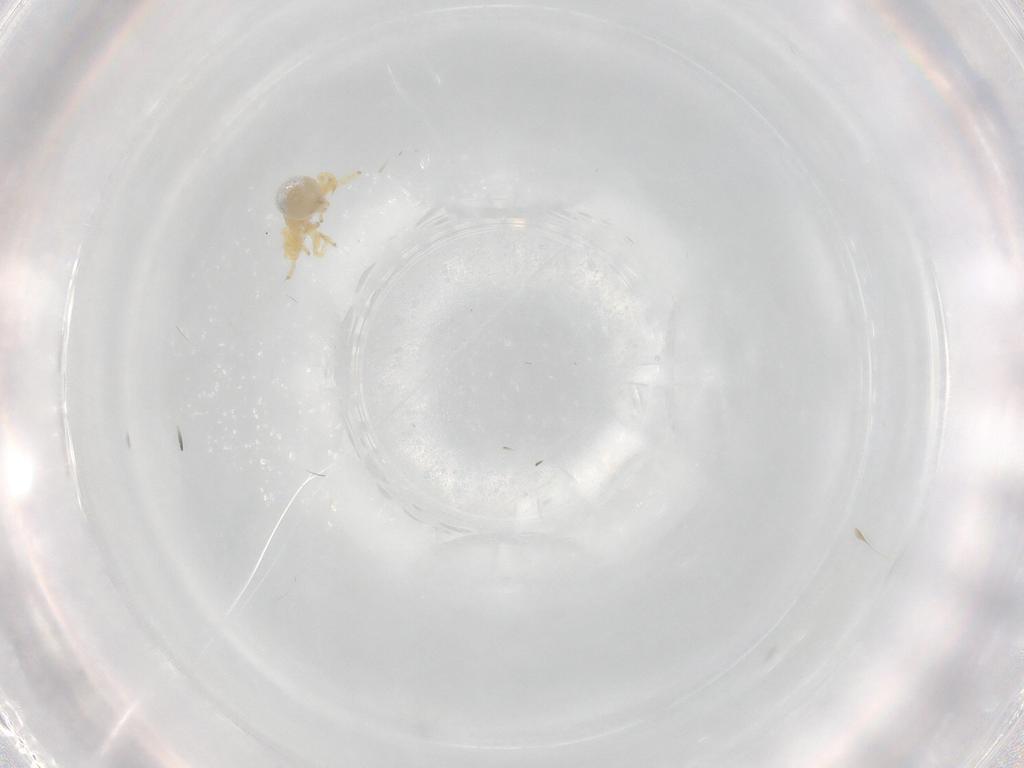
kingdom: Animalia
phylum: Arthropoda
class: Arachnida
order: Araneae
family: Oonopidae
